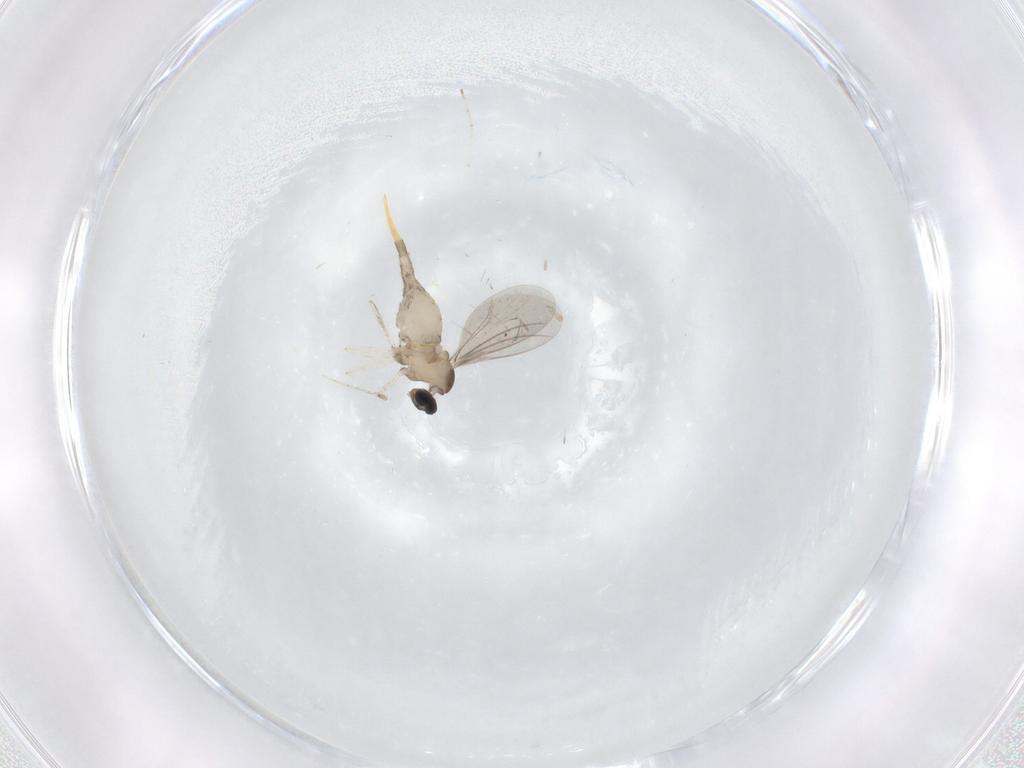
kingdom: Animalia
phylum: Arthropoda
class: Insecta
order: Diptera
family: Cecidomyiidae
